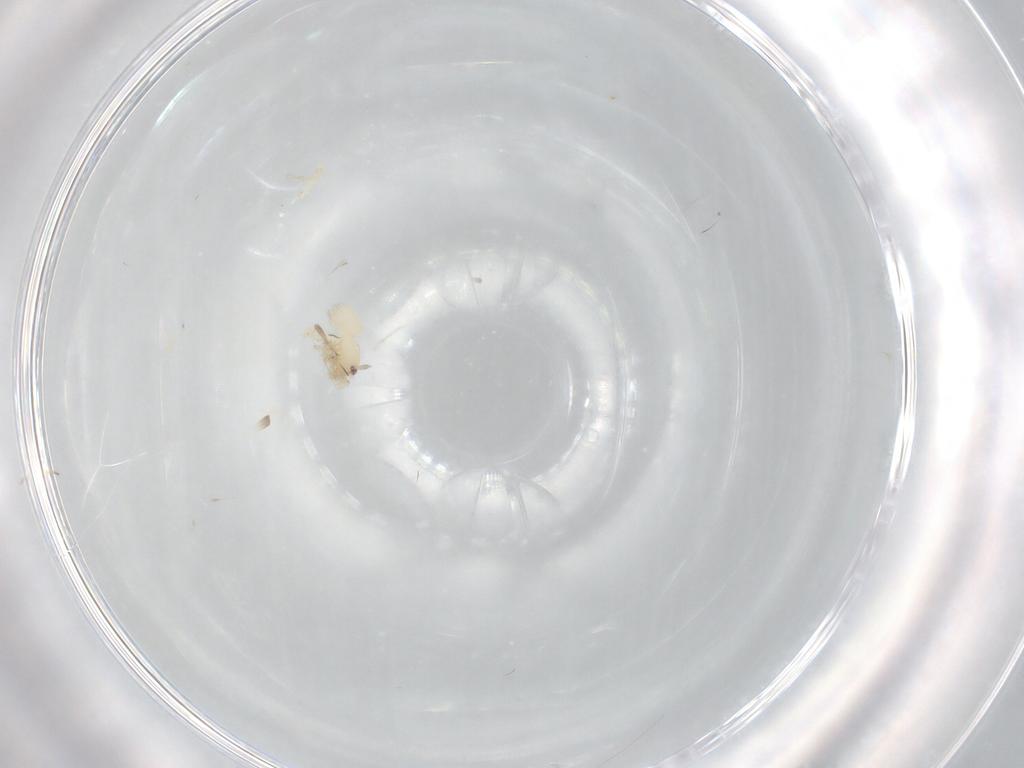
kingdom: Animalia
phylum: Arthropoda
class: Arachnida
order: Araneae
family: Dictynidae
